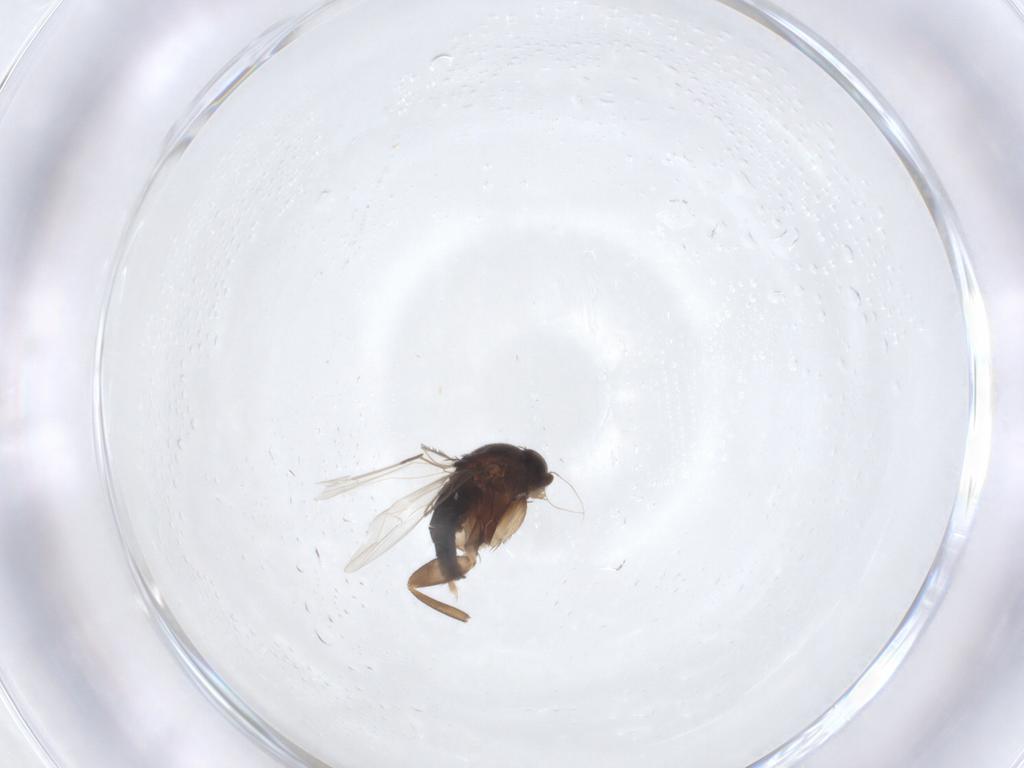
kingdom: Animalia
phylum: Arthropoda
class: Insecta
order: Diptera
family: Phoridae
